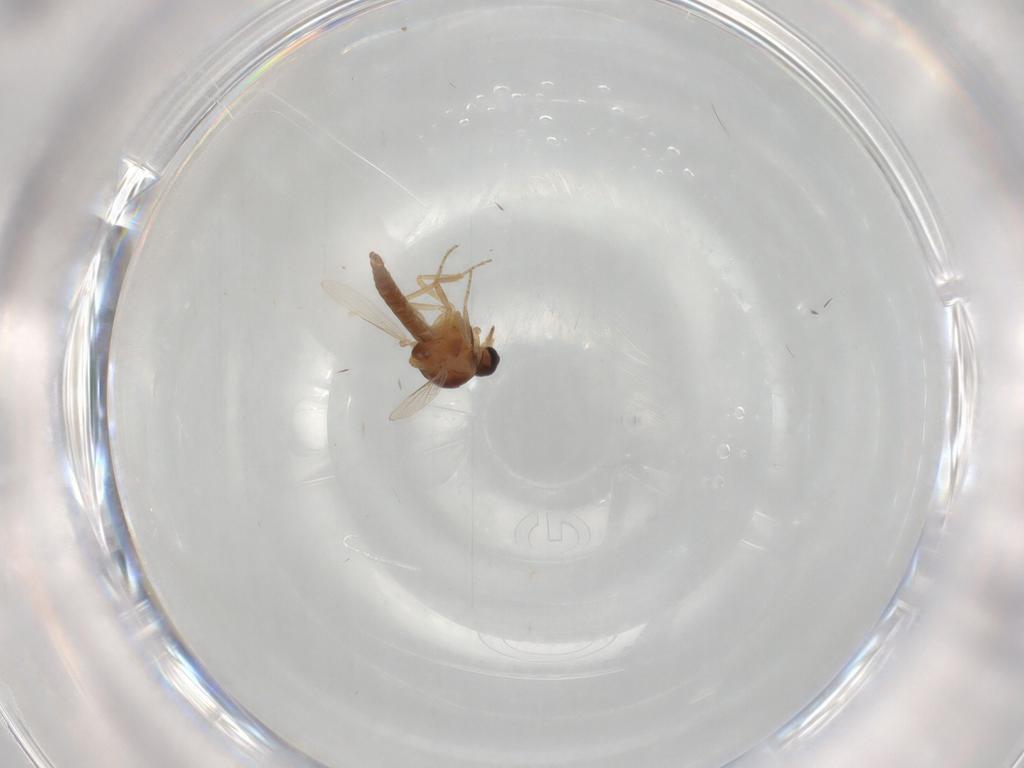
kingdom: Animalia
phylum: Arthropoda
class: Insecta
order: Diptera
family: Ceratopogonidae
